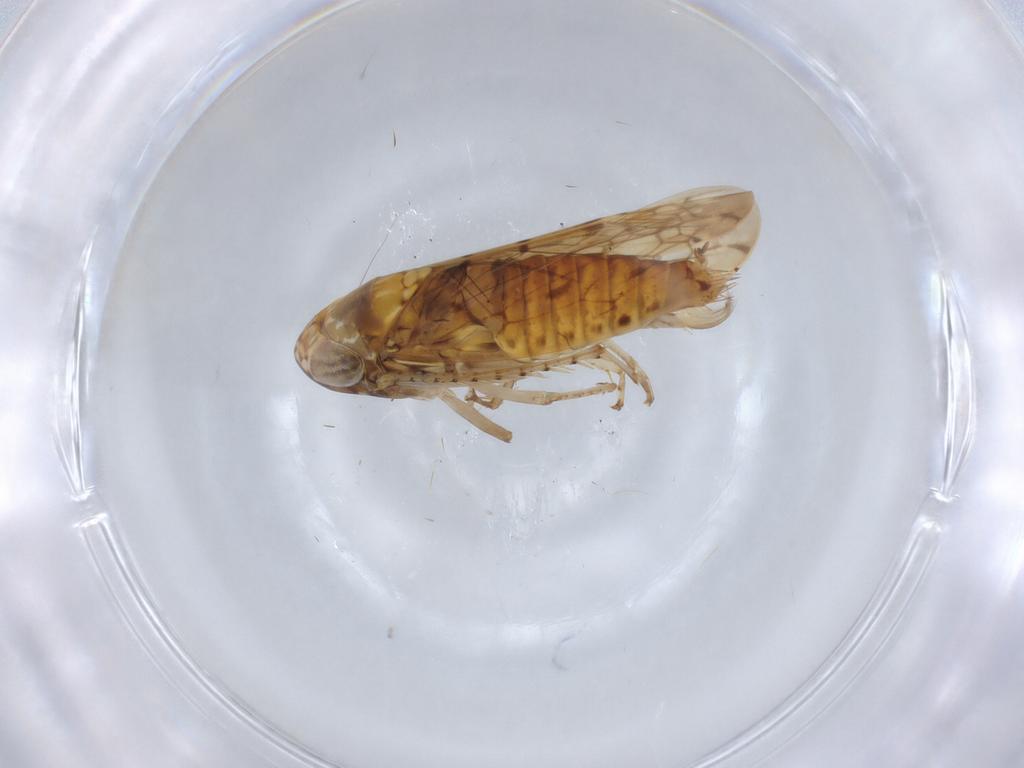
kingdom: Animalia
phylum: Arthropoda
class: Insecta
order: Hemiptera
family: Cicadellidae
